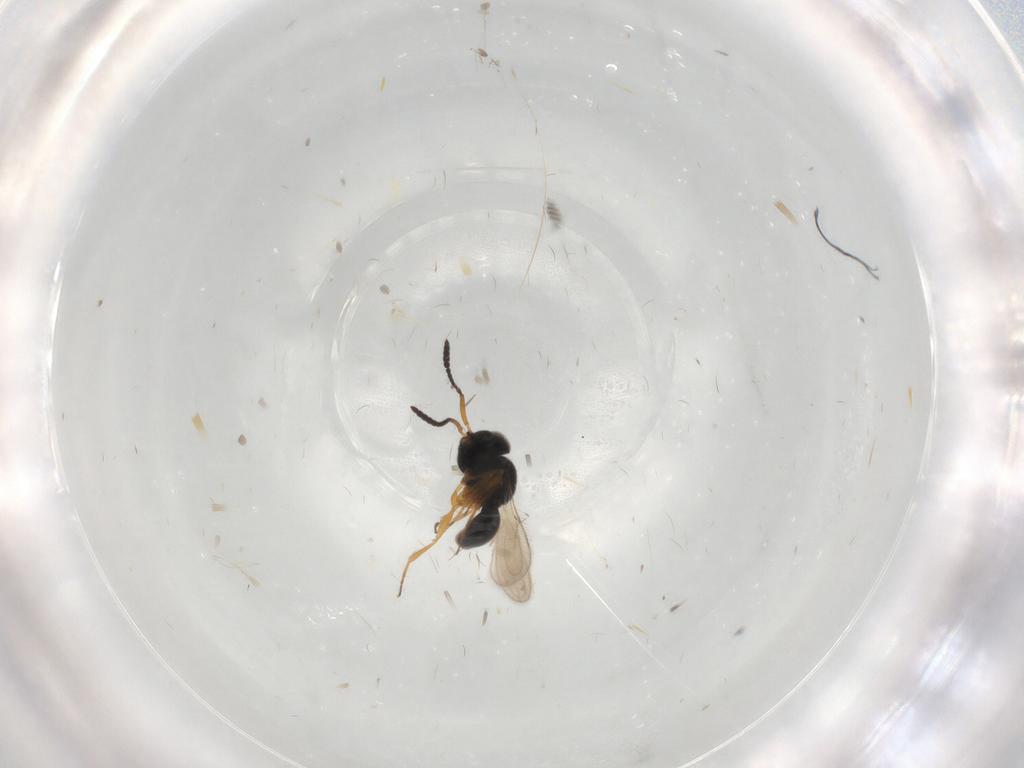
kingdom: Animalia
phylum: Arthropoda
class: Insecta
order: Hymenoptera
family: Scelionidae
